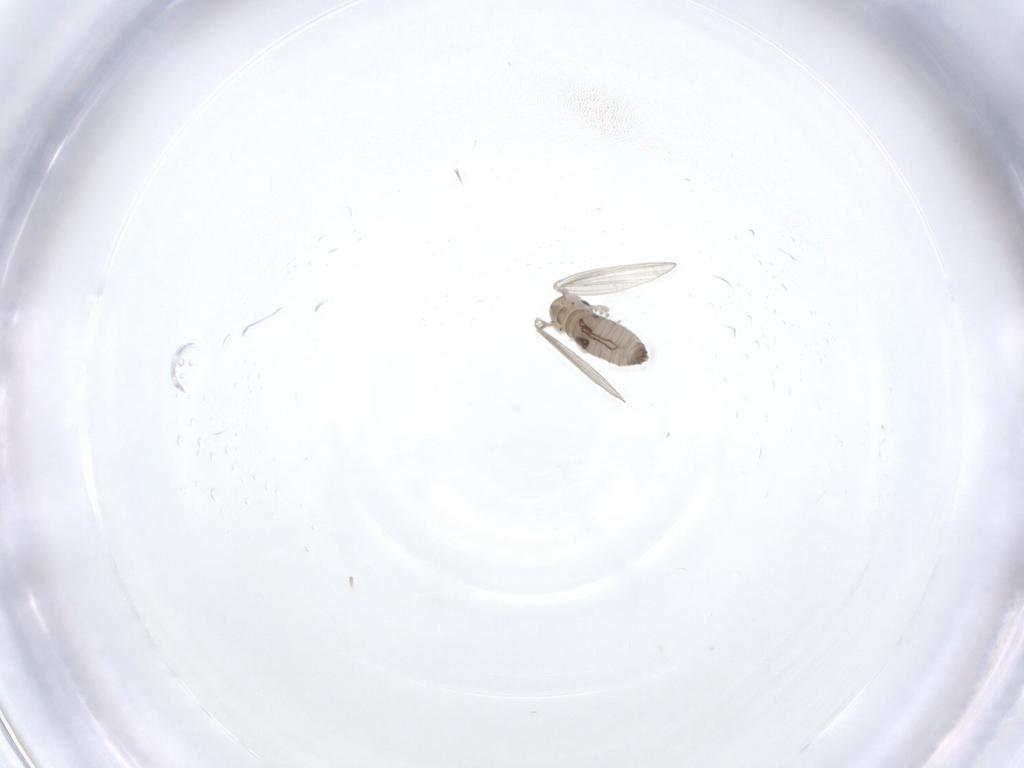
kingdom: Animalia
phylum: Arthropoda
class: Insecta
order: Diptera
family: Psychodidae
